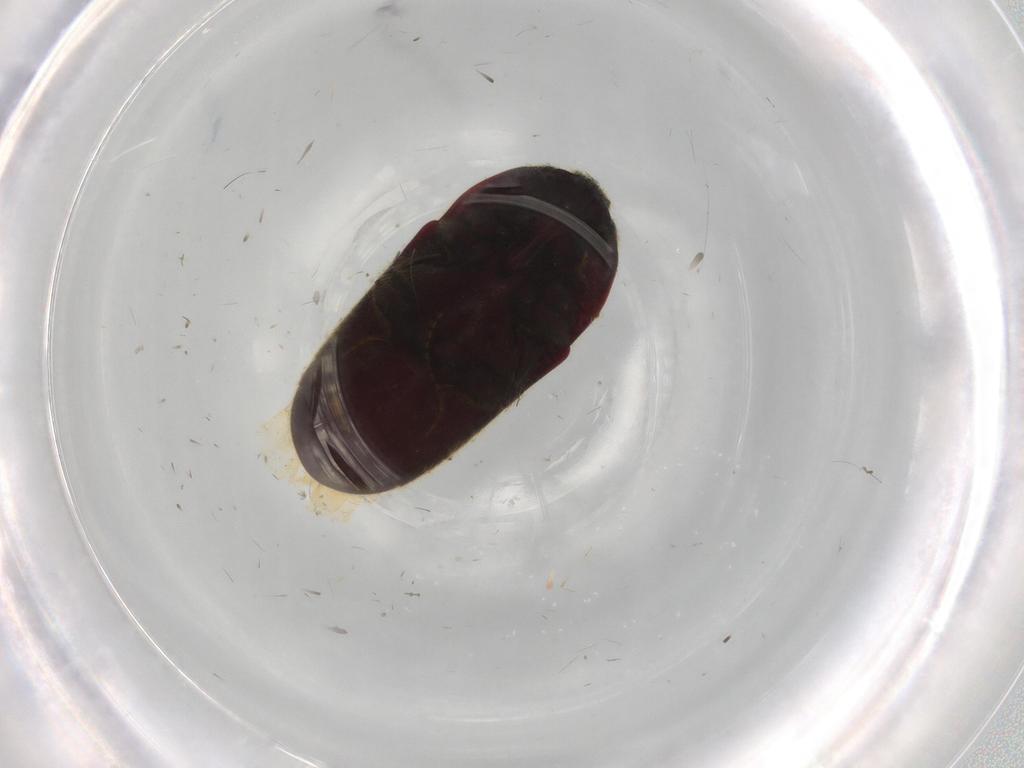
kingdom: Animalia
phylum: Arthropoda
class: Insecta
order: Coleoptera
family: Throscidae
